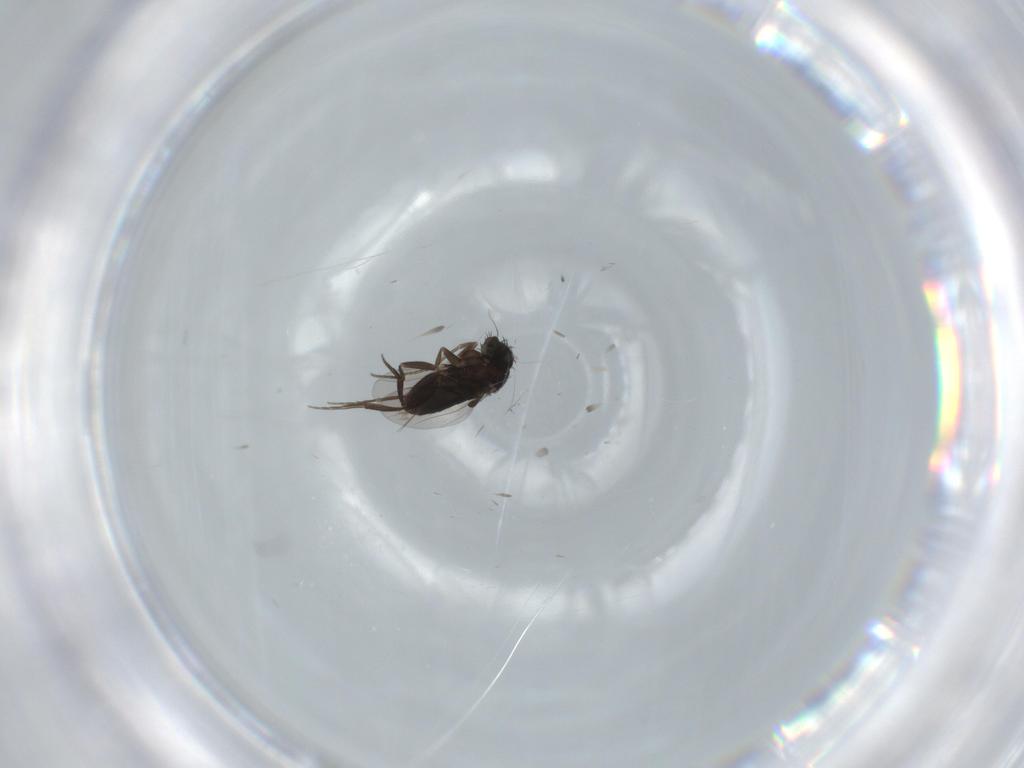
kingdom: Animalia
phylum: Arthropoda
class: Insecta
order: Diptera
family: Phoridae
